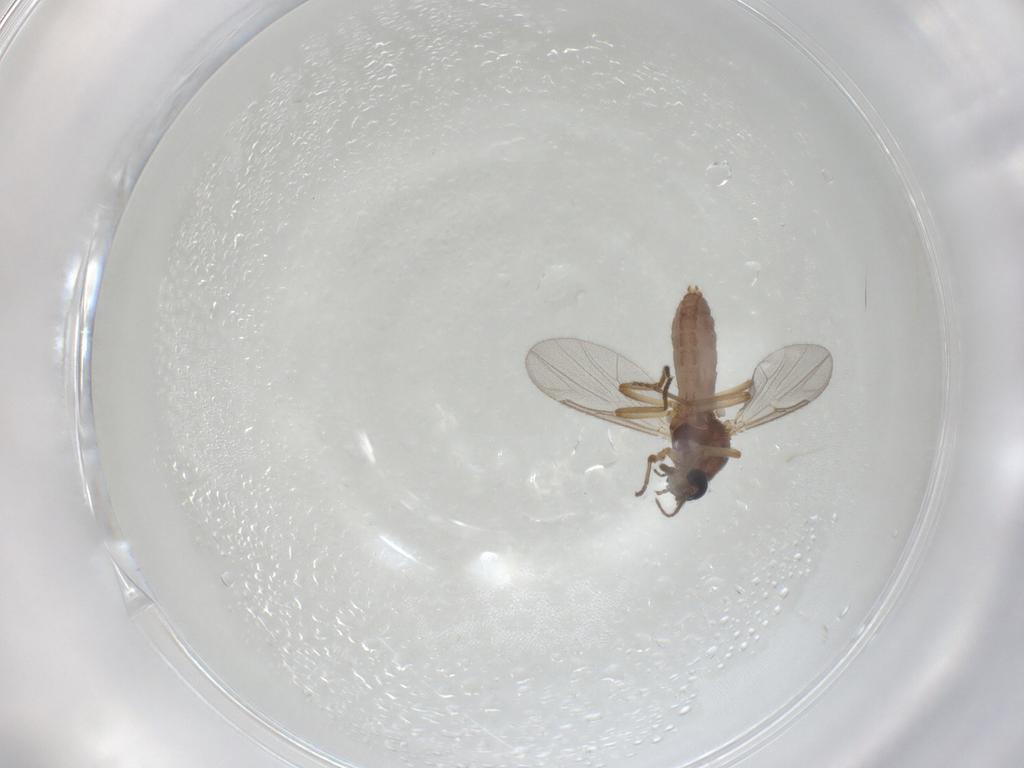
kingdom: Animalia
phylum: Arthropoda
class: Insecta
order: Diptera
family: Ceratopogonidae
